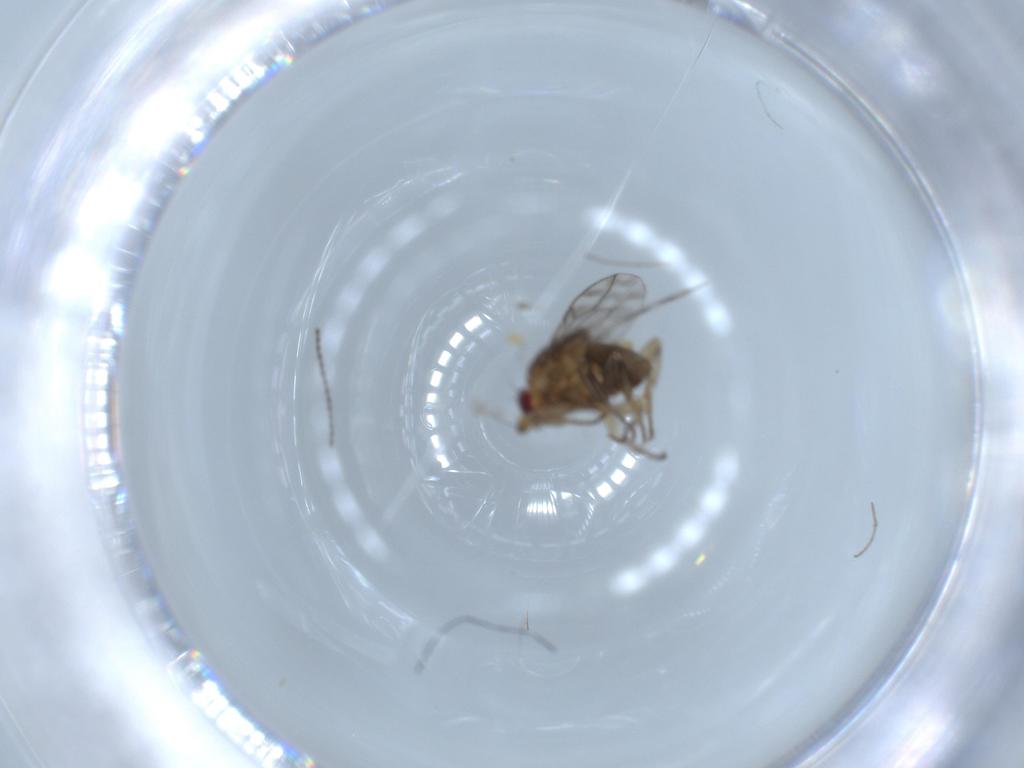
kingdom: Animalia
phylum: Arthropoda
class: Insecta
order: Diptera
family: Sphaeroceridae
